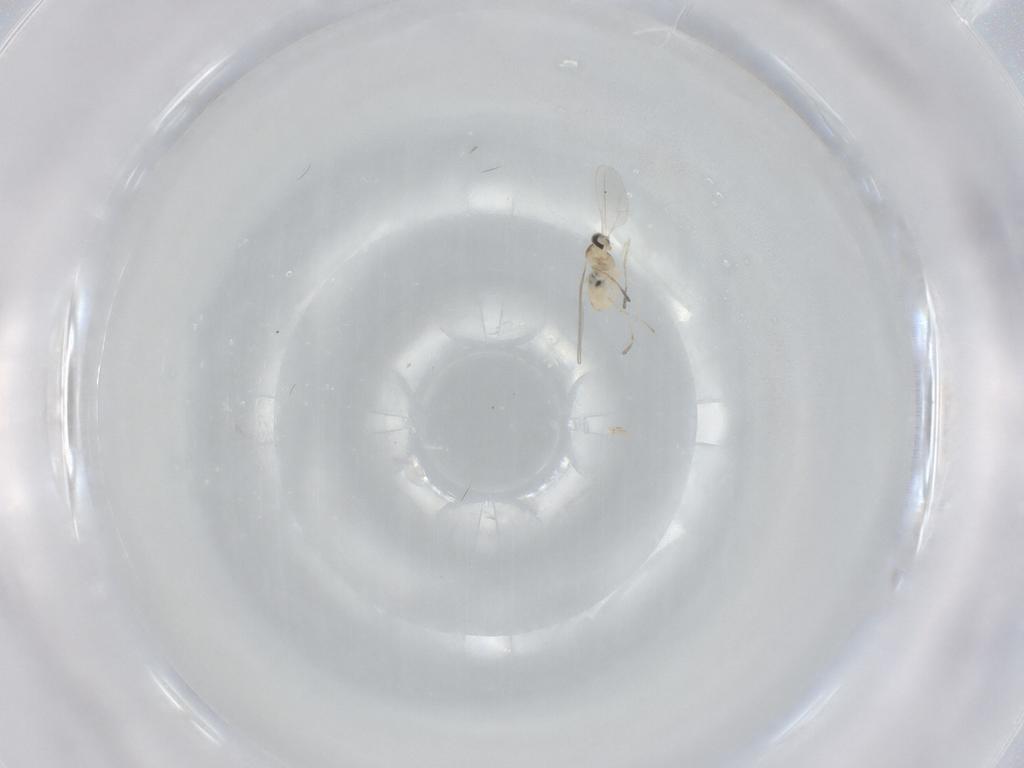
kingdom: Animalia
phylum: Arthropoda
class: Insecta
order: Diptera
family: Cecidomyiidae
